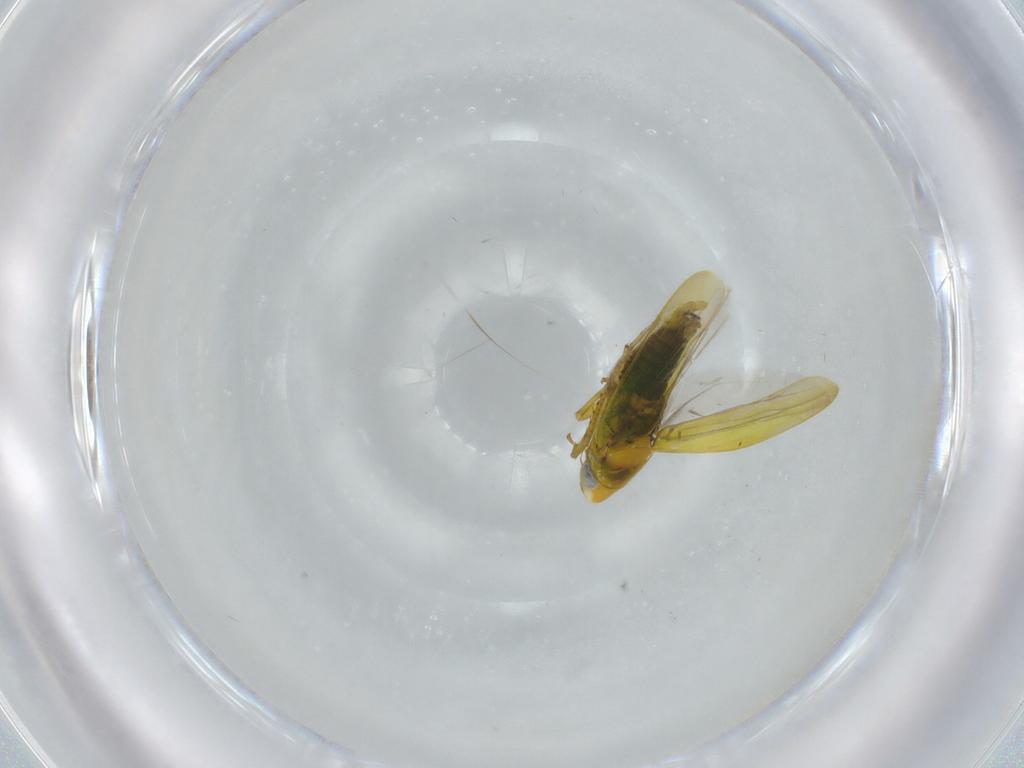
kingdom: Animalia
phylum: Arthropoda
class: Insecta
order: Hemiptera
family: Cicadellidae
